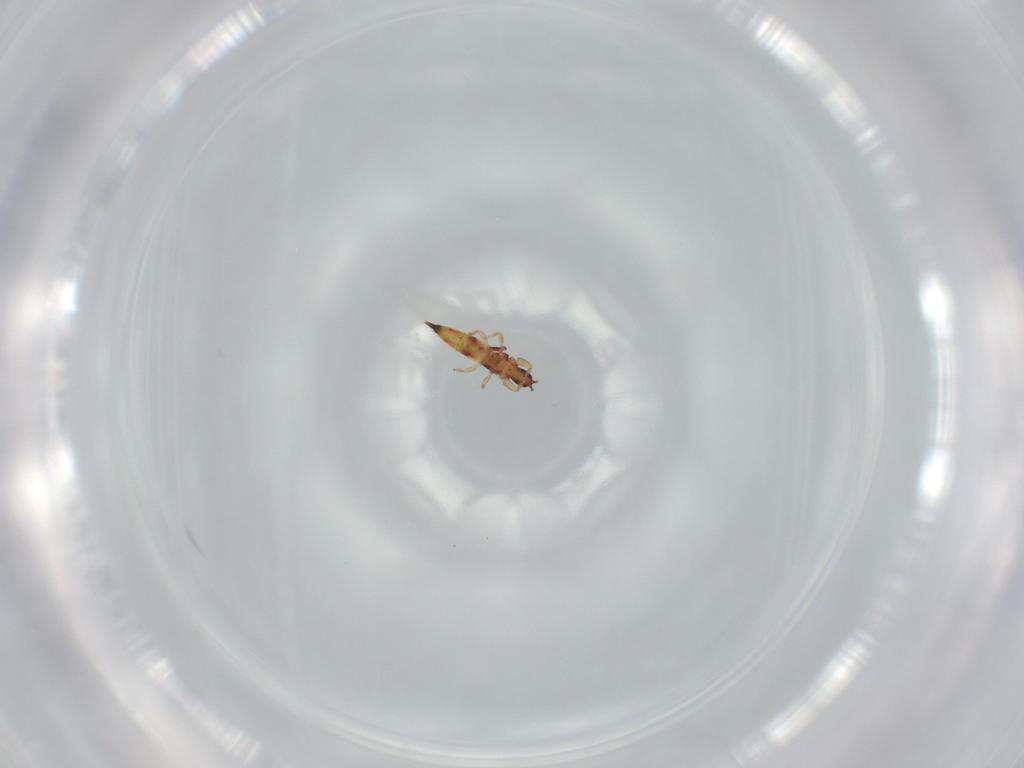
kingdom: Animalia
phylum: Arthropoda
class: Insecta
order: Thysanoptera
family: Phlaeothripidae
